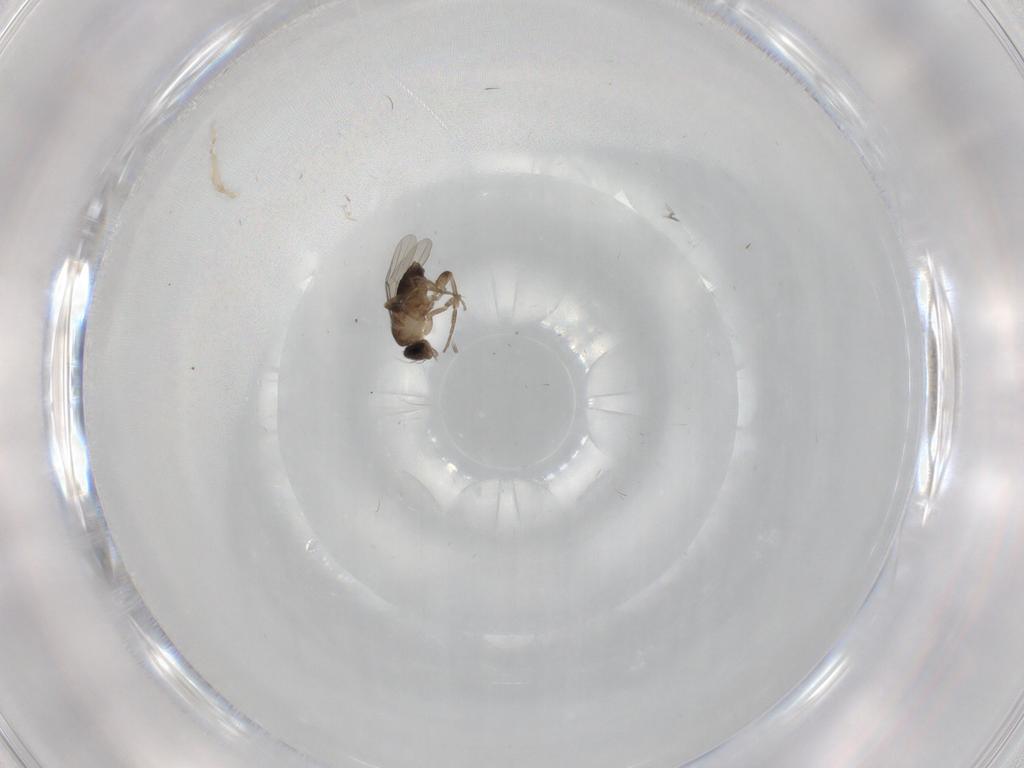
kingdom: Animalia
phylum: Arthropoda
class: Insecta
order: Diptera
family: Phoridae
